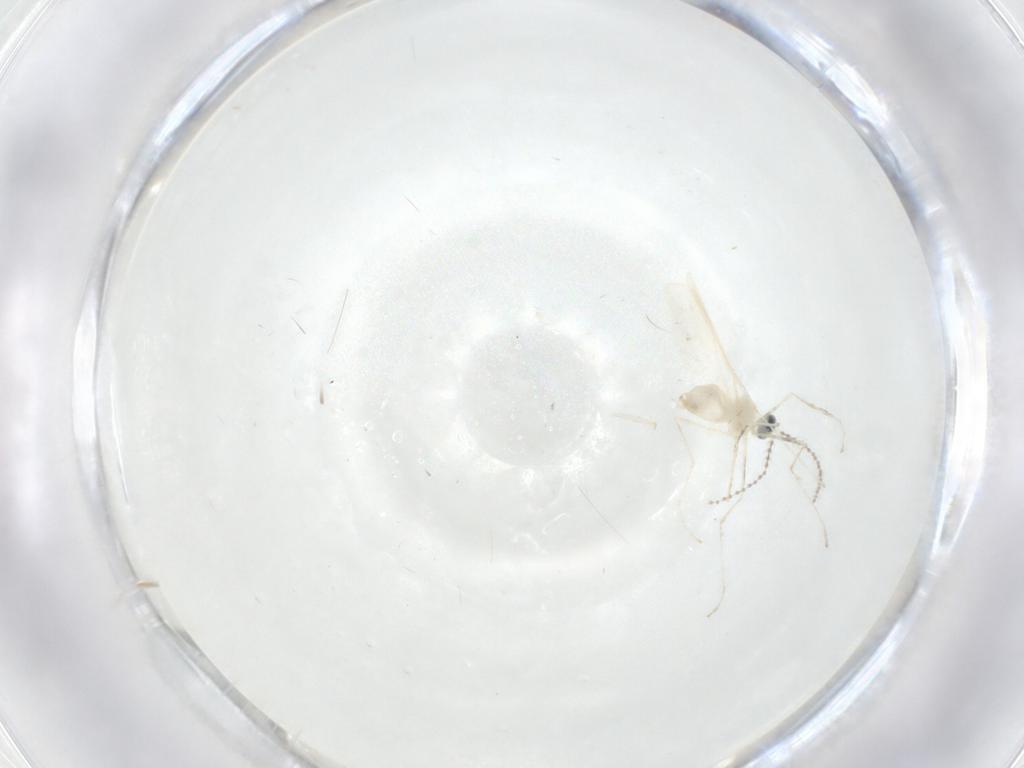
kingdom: Animalia
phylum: Arthropoda
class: Insecta
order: Diptera
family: Cecidomyiidae
